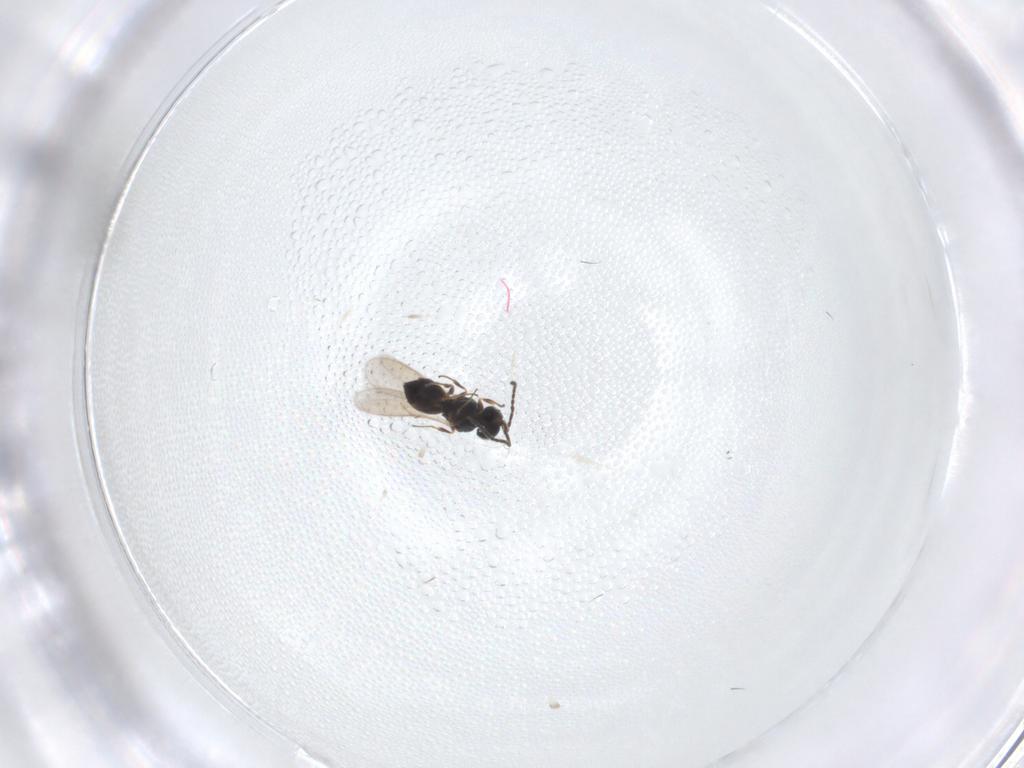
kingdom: Animalia
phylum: Arthropoda
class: Insecta
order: Hymenoptera
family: Scelionidae
